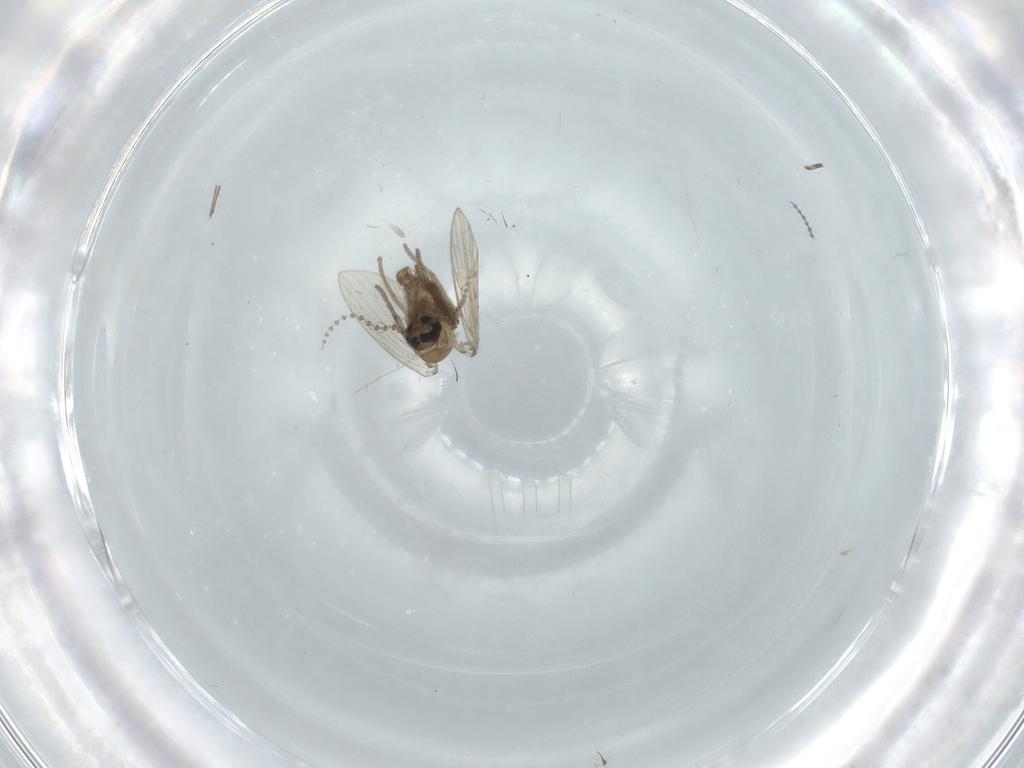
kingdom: Animalia
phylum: Arthropoda
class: Insecta
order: Diptera
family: Psychodidae
